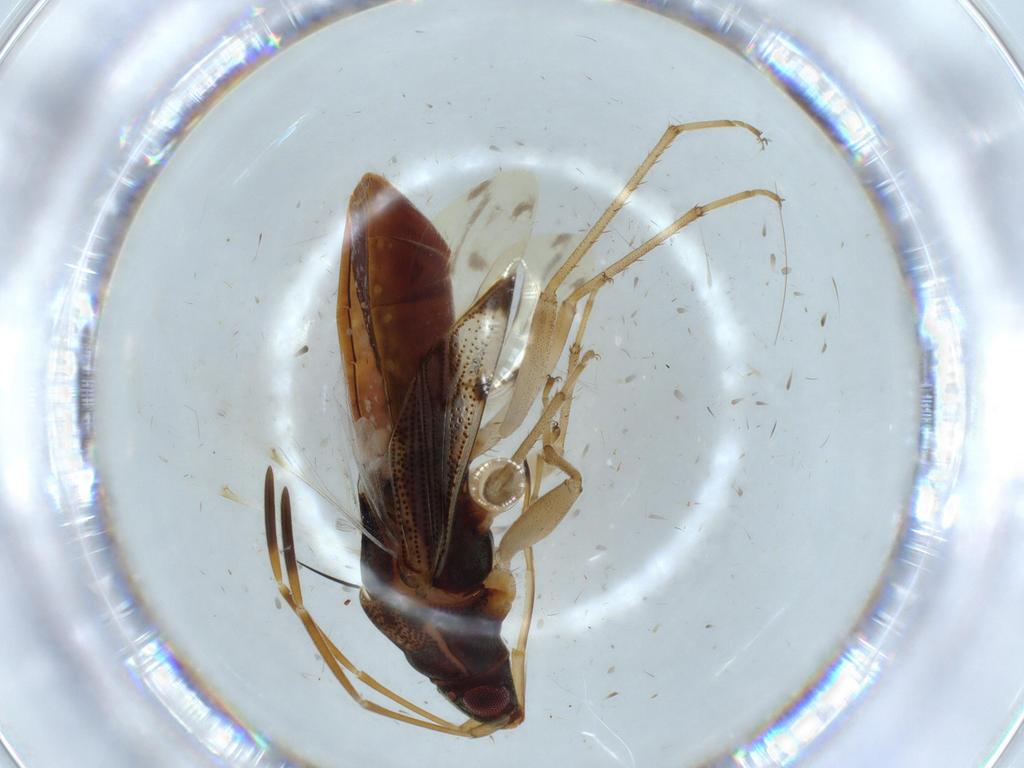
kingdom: Animalia
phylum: Arthropoda
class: Insecta
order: Hemiptera
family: Rhyparochromidae
